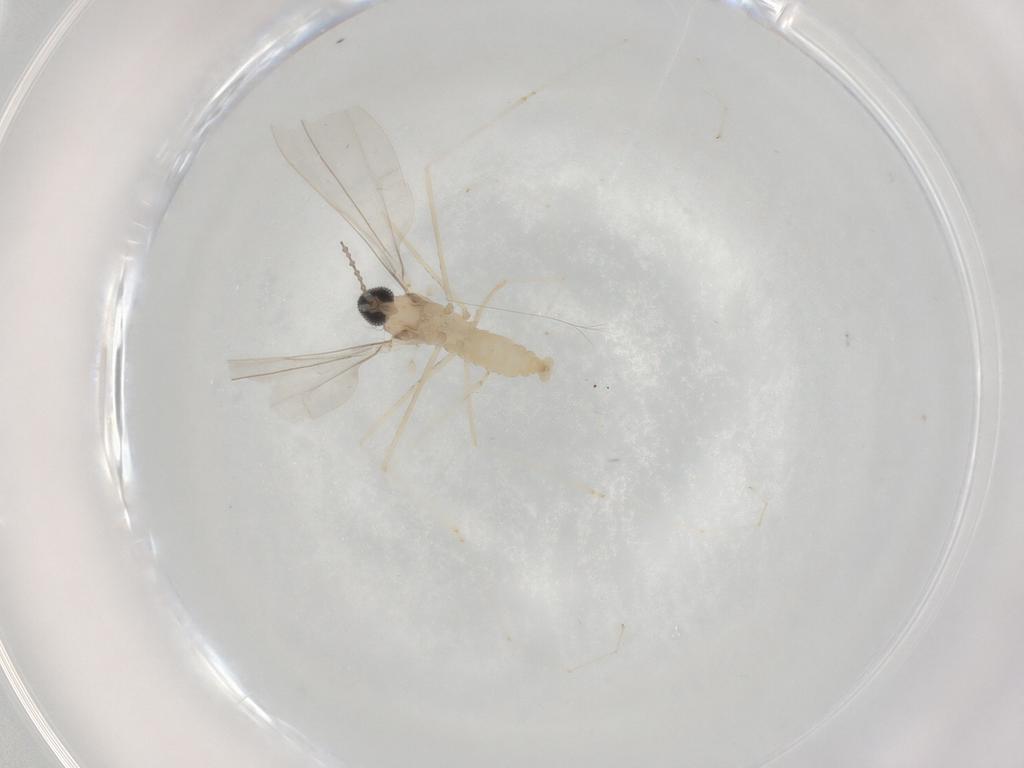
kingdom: Animalia
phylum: Arthropoda
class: Insecta
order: Diptera
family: Cecidomyiidae
